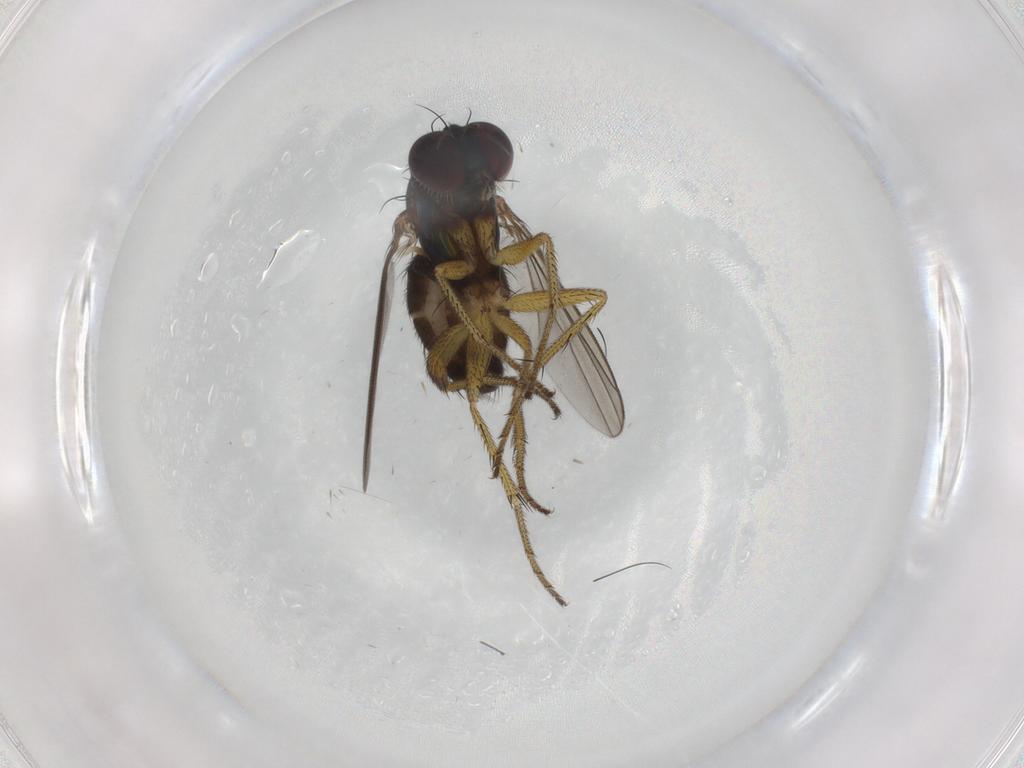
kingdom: Animalia
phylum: Arthropoda
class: Insecta
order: Diptera
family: Dolichopodidae
